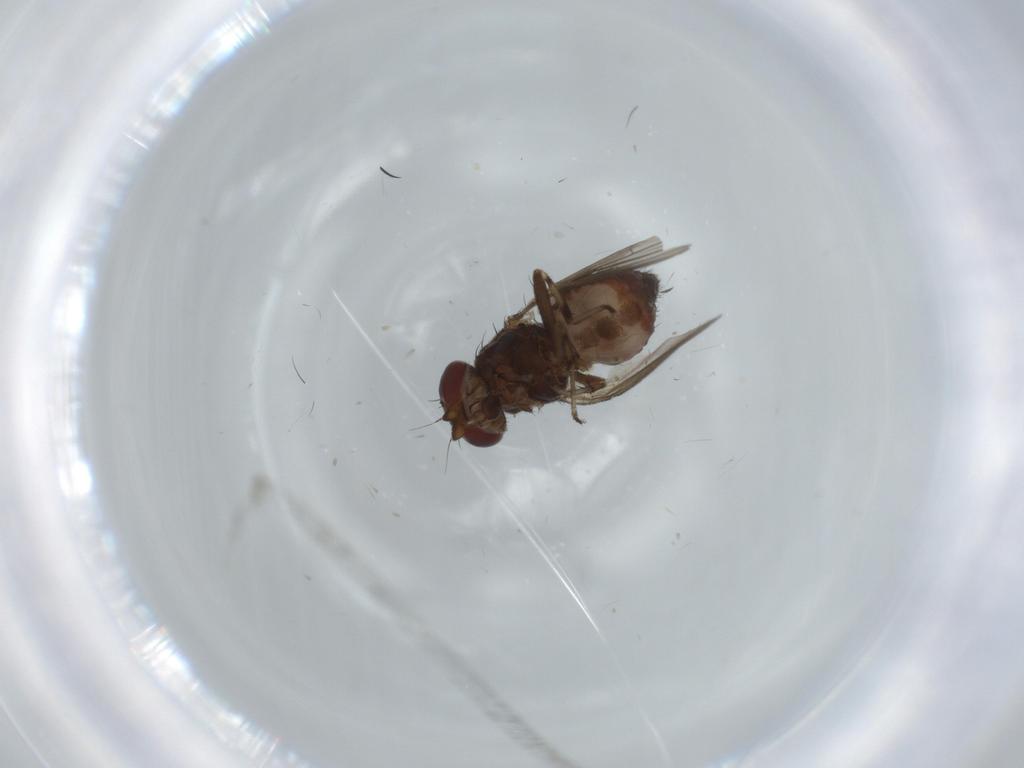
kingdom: Animalia
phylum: Arthropoda
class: Insecta
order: Diptera
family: Heleomyzidae
